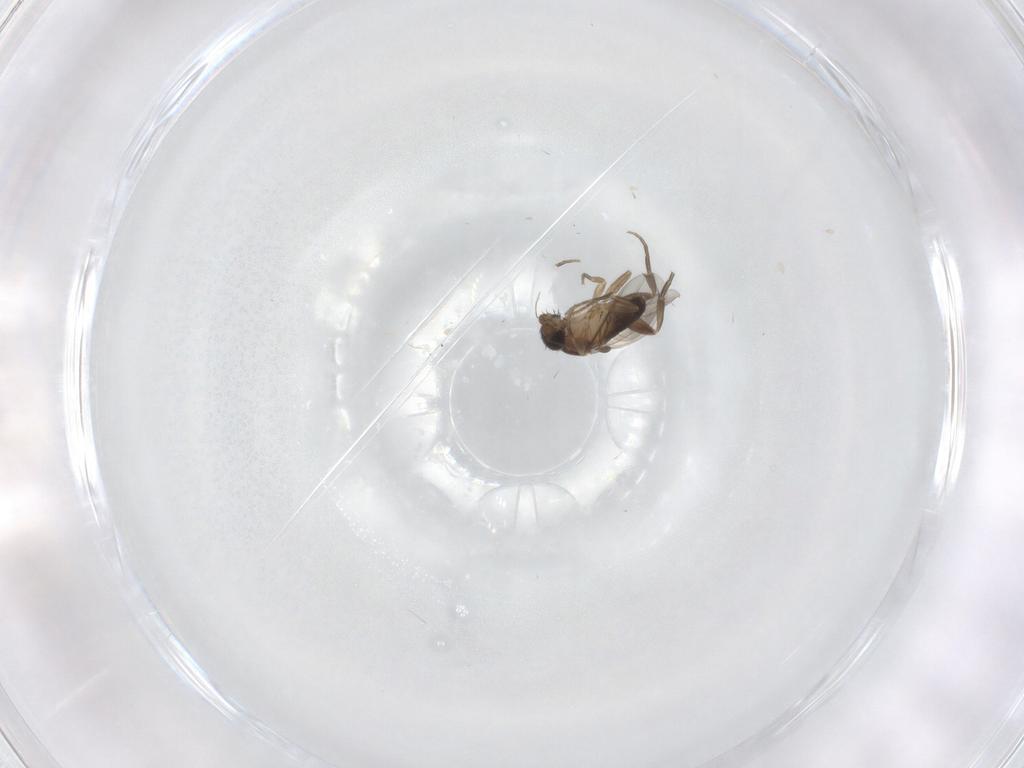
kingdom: Animalia
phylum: Arthropoda
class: Insecta
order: Diptera
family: Phoridae
